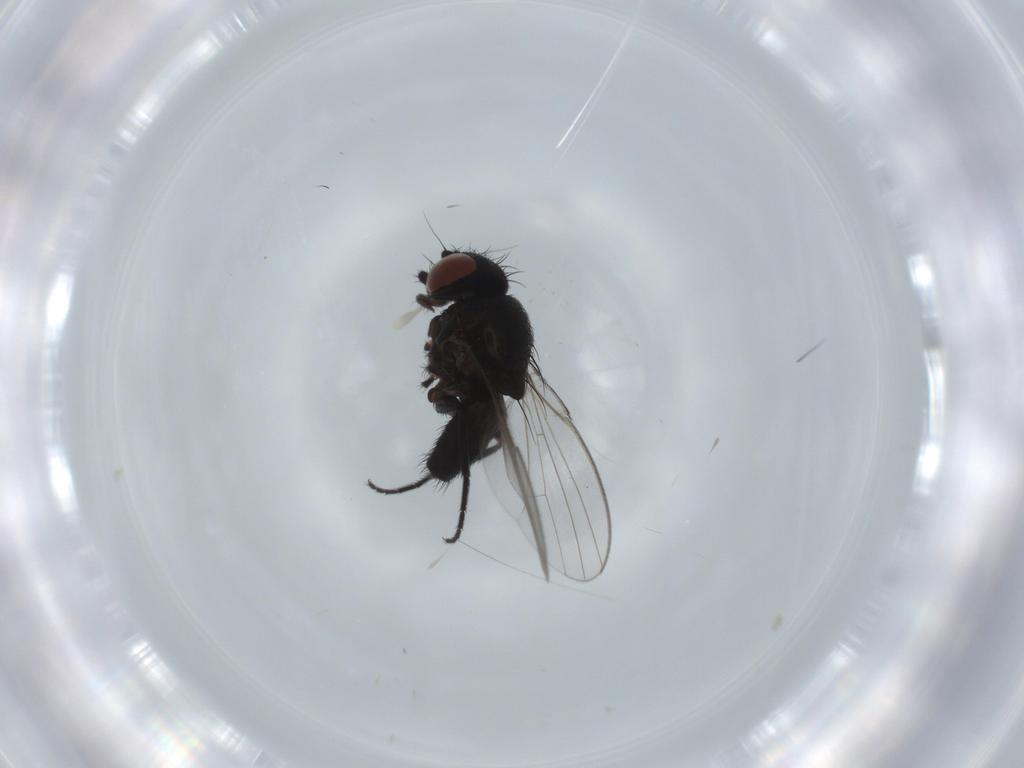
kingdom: Animalia
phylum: Arthropoda
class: Insecta
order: Diptera
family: Milichiidae
